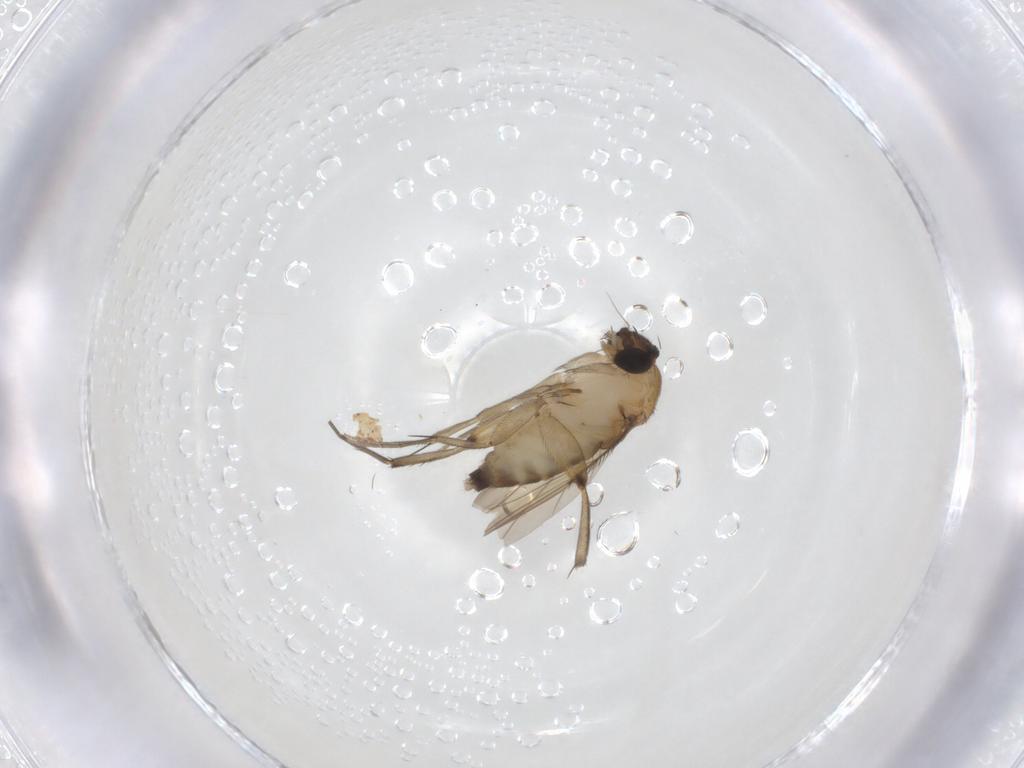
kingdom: Animalia
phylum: Arthropoda
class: Insecta
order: Diptera
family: Phoridae
